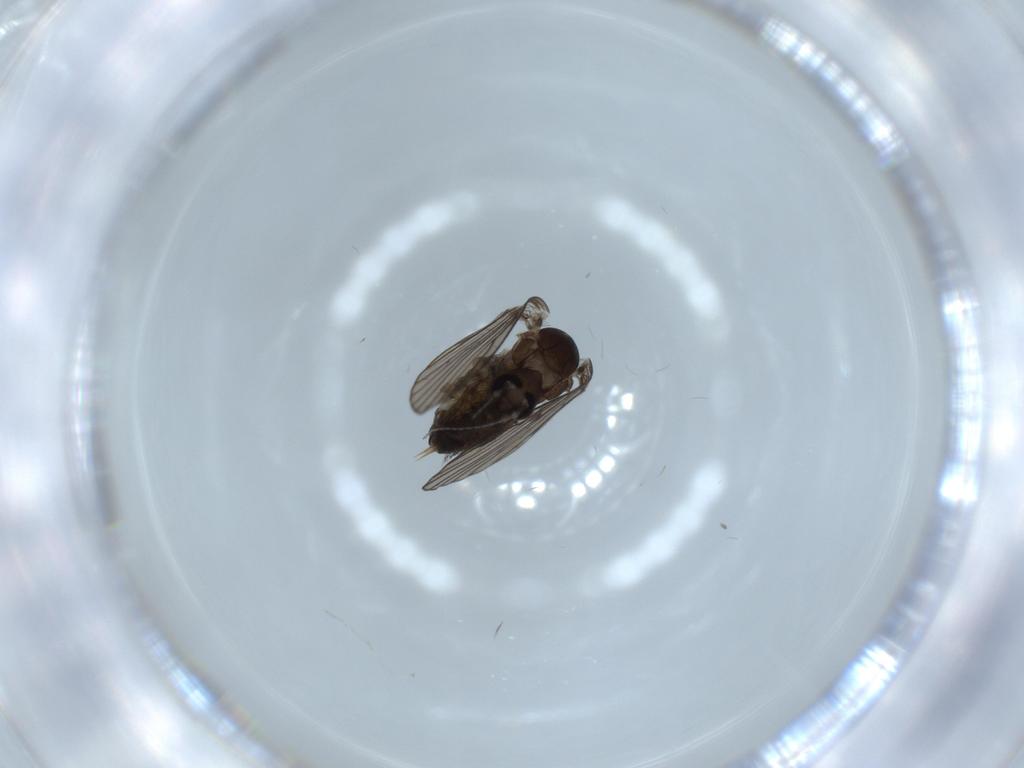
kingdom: Animalia
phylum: Arthropoda
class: Insecta
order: Diptera
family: Psychodidae
